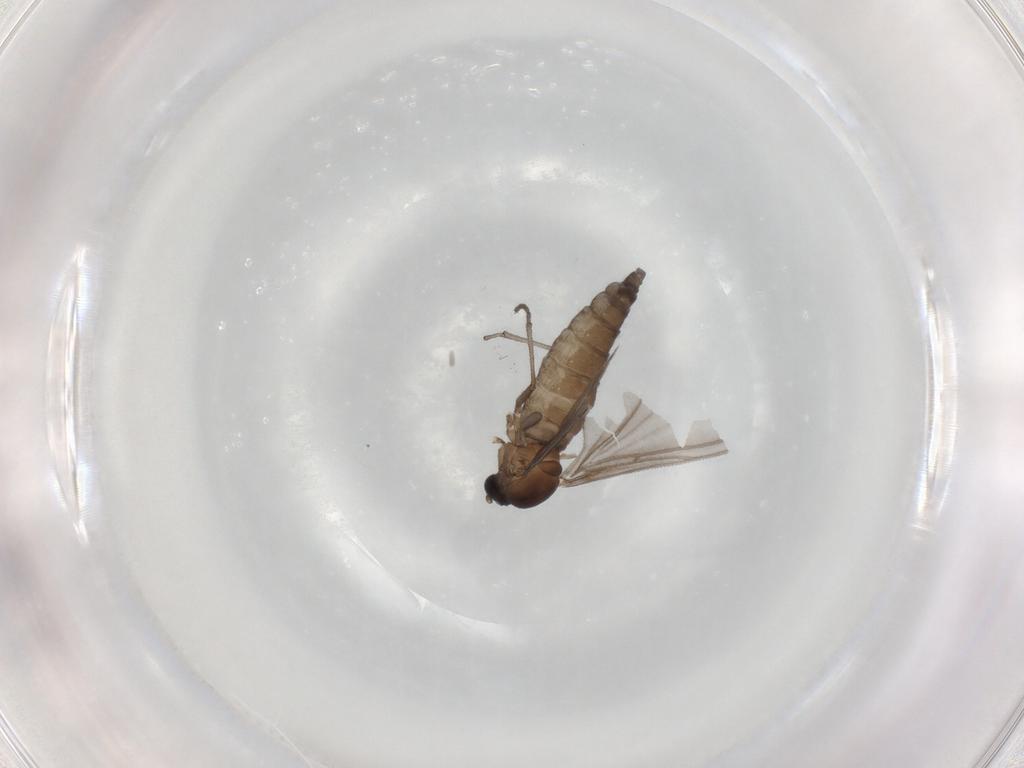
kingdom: Animalia
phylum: Arthropoda
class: Insecta
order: Diptera
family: Sciaridae
